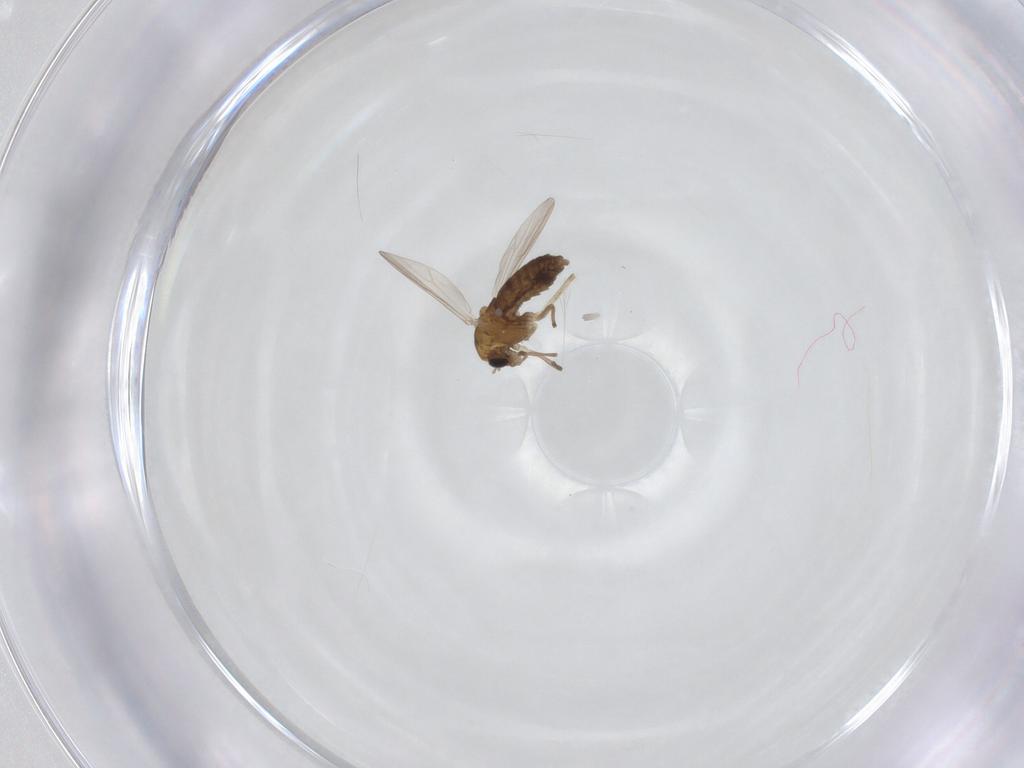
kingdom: Animalia
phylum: Arthropoda
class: Insecta
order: Diptera
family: Chironomidae
